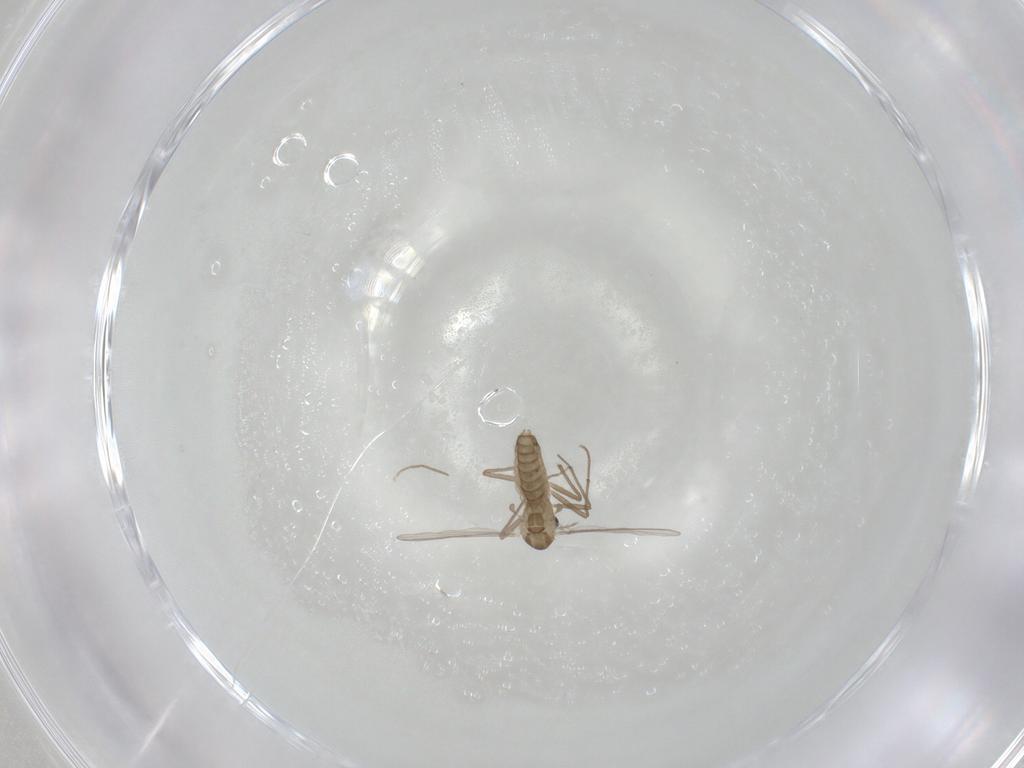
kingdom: Animalia
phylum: Arthropoda
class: Insecta
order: Diptera
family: Chironomidae
